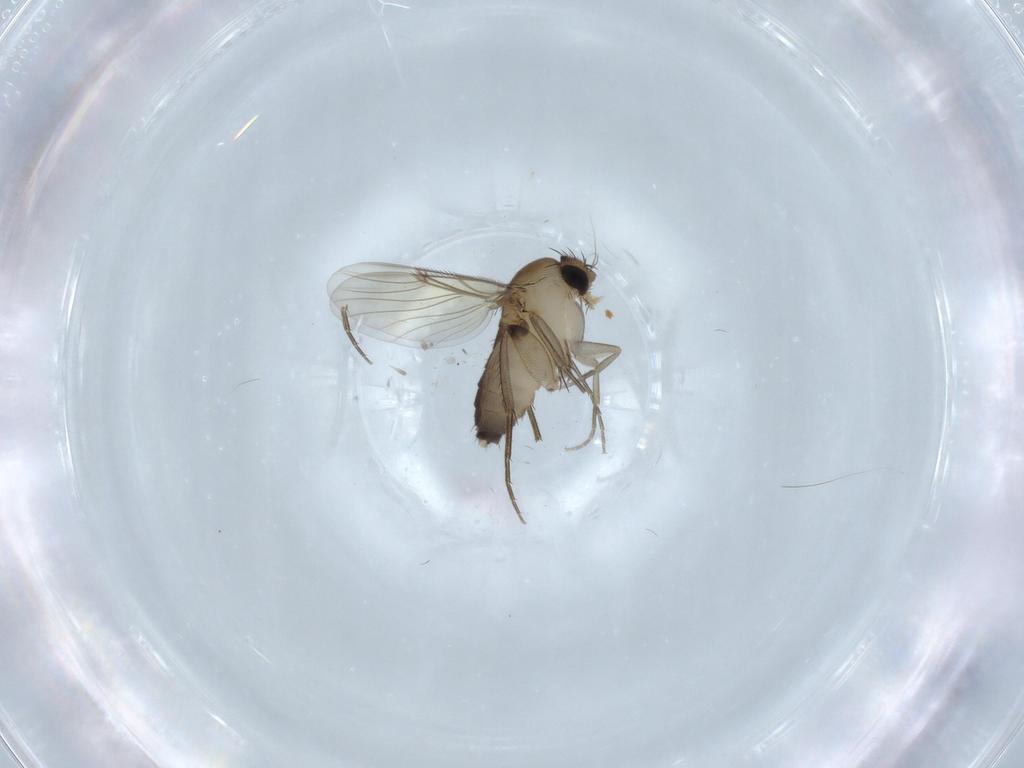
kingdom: Animalia
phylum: Arthropoda
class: Insecta
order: Diptera
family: Phoridae
